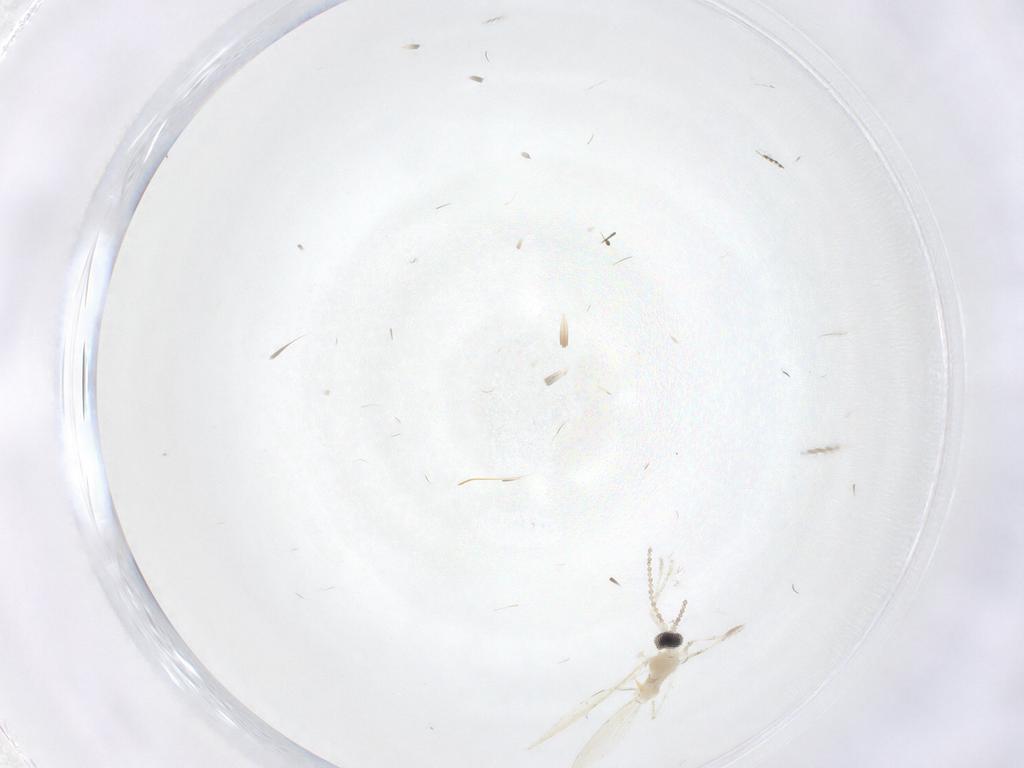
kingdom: Animalia
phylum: Arthropoda
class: Insecta
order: Diptera
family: Cecidomyiidae
